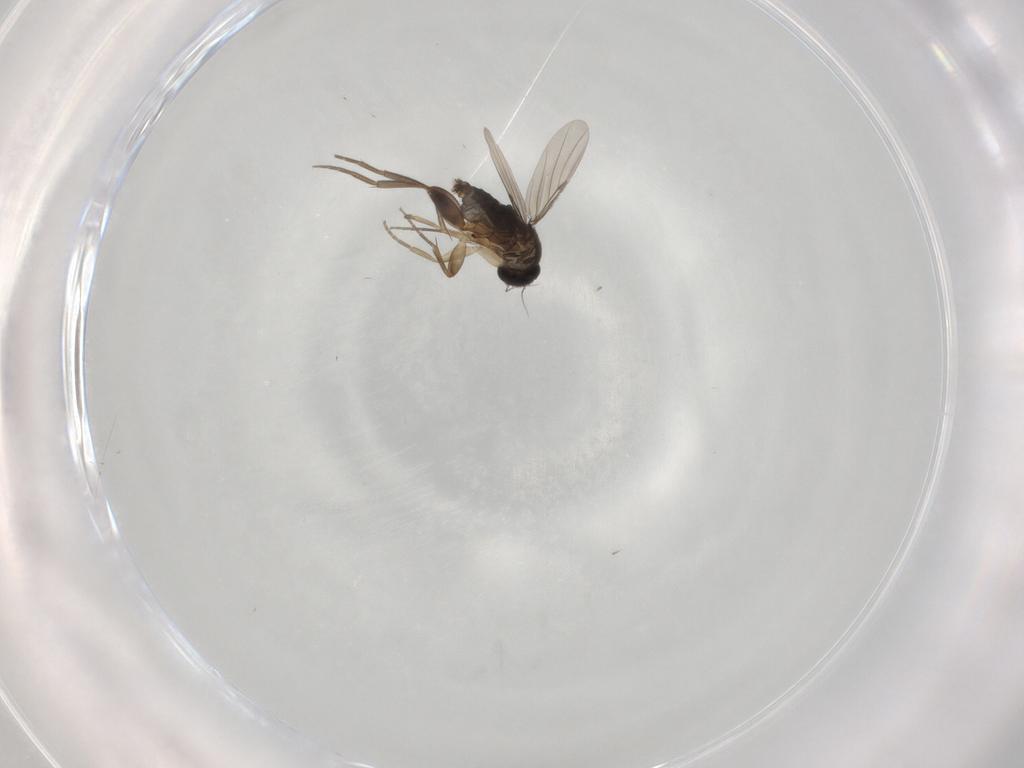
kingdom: Animalia
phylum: Arthropoda
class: Insecta
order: Diptera
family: Phoridae
